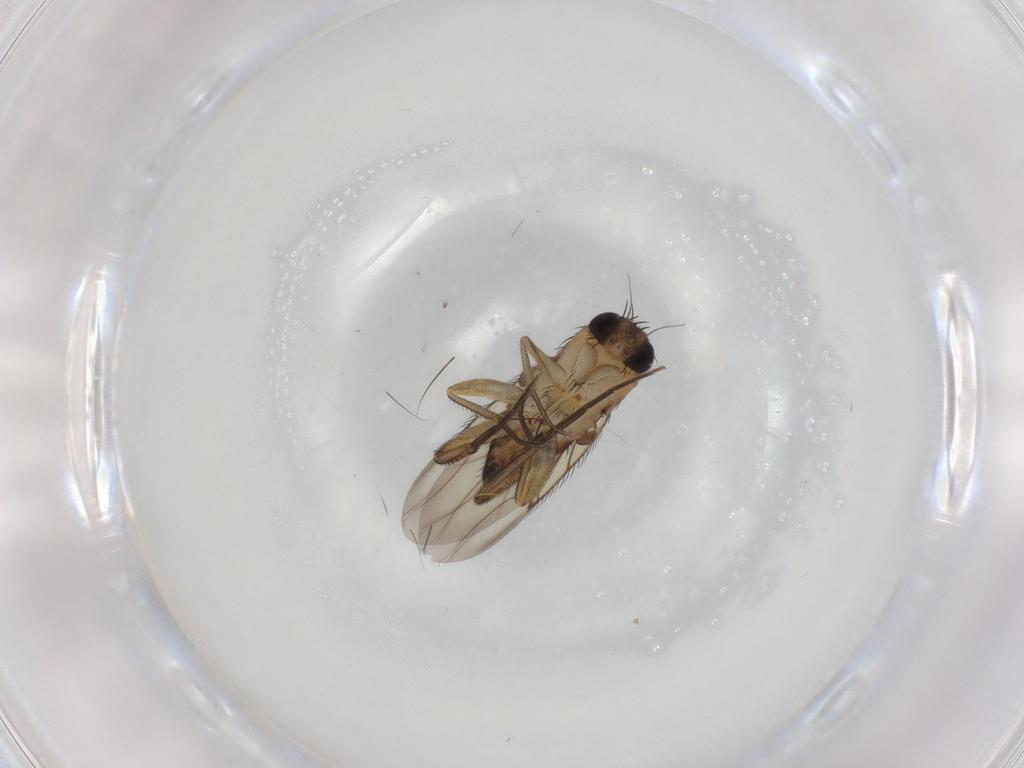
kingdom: Animalia
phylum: Arthropoda
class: Insecta
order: Diptera
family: Phoridae
